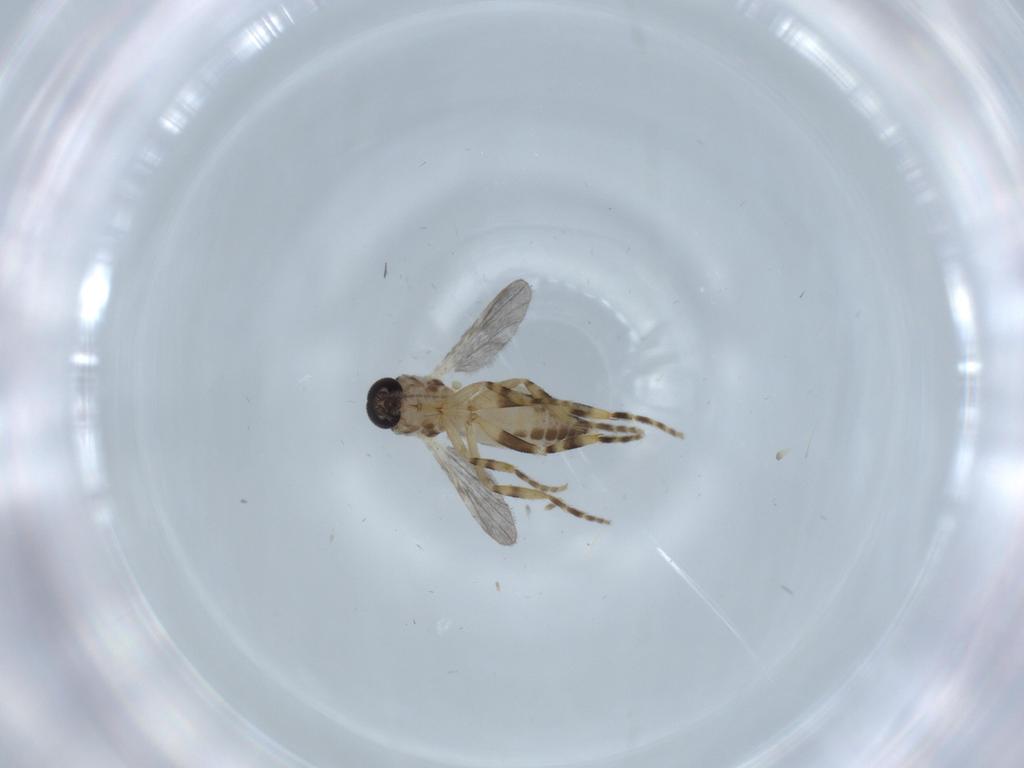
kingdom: Animalia
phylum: Arthropoda
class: Insecta
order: Diptera
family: Ceratopogonidae
